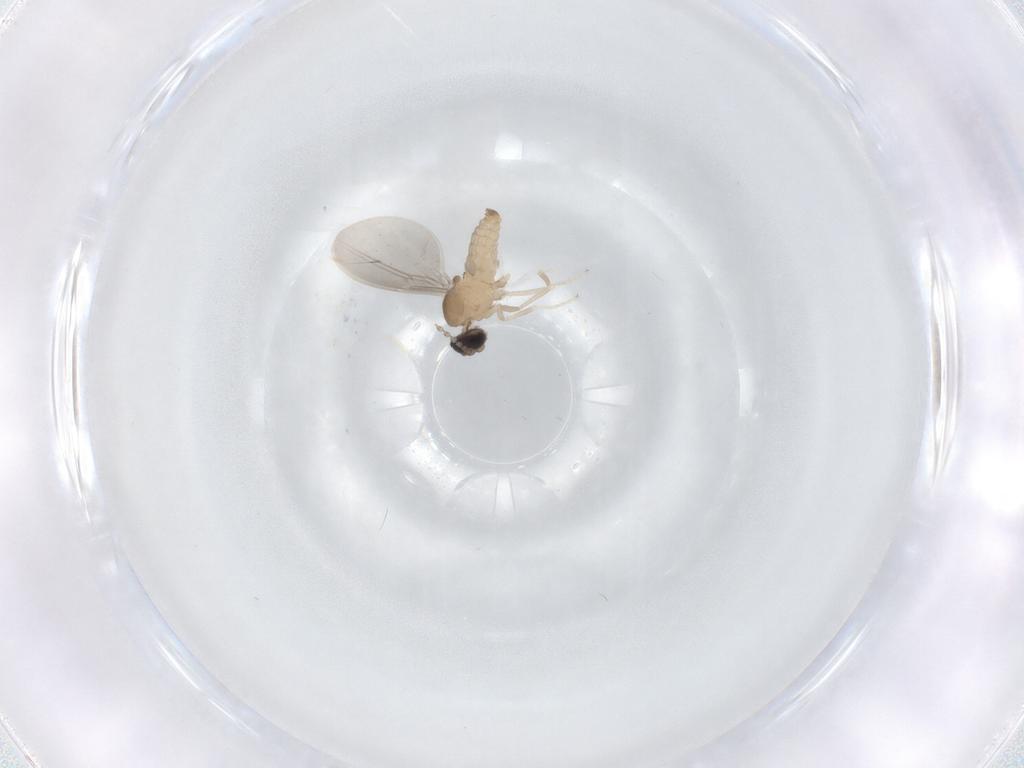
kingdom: Animalia
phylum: Arthropoda
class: Insecta
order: Diptera
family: Cecidomyiidae
